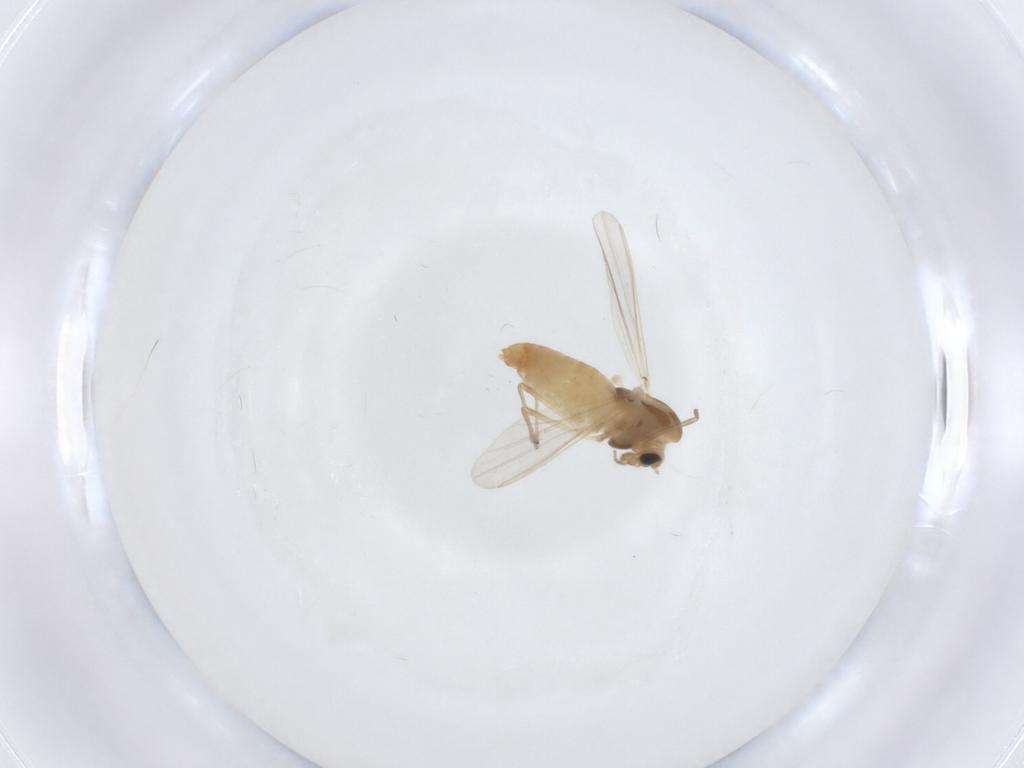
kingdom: Animalia
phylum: Arthropoda
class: Insecta
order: Diptera
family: Chironomidae
